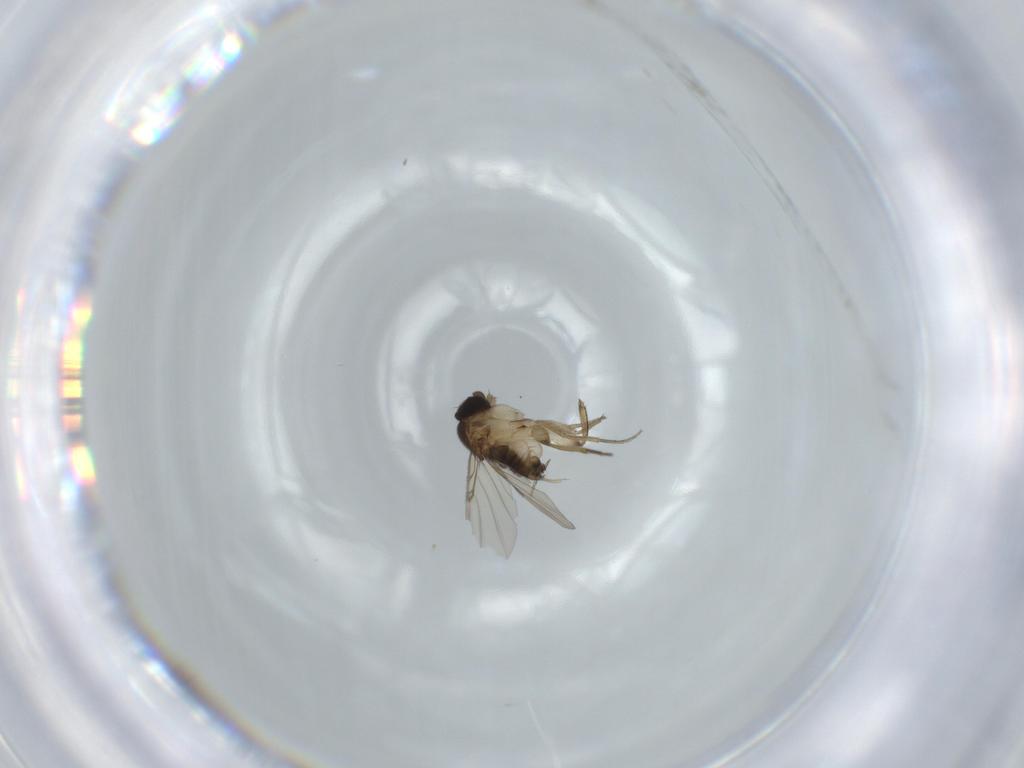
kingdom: Animalia
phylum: Arthropoda
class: Insecta
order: Diptera
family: Phoridae
